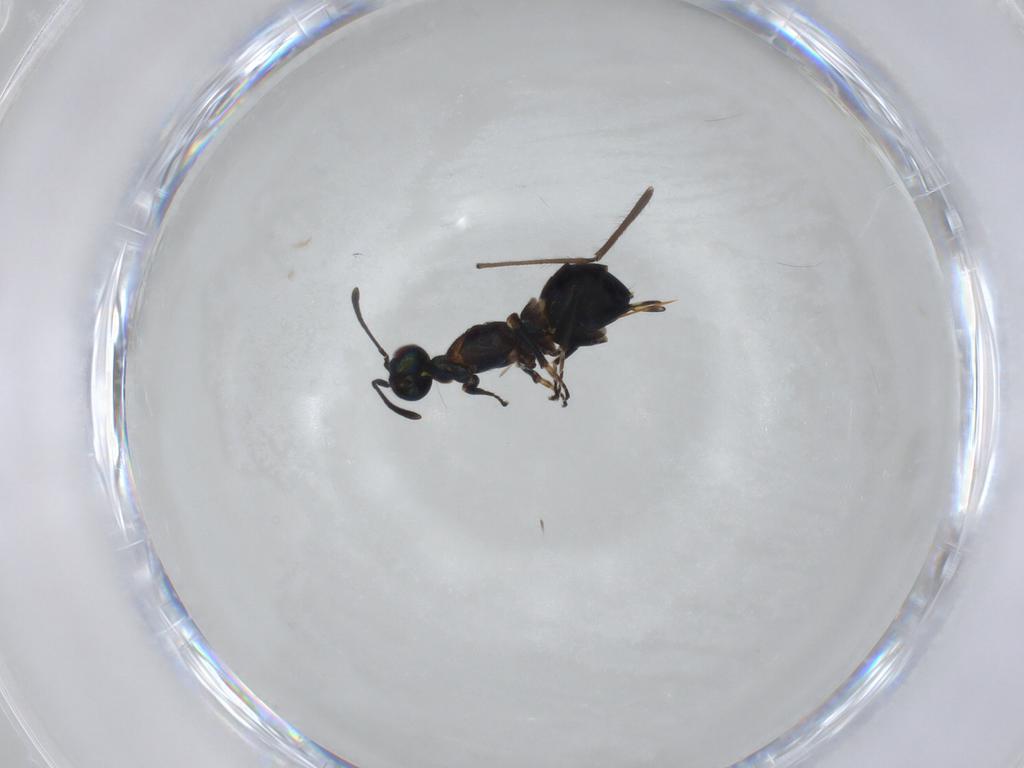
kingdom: Animalia
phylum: Arthropoda
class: Insecta
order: Hymenoptera
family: Eupelmidae
